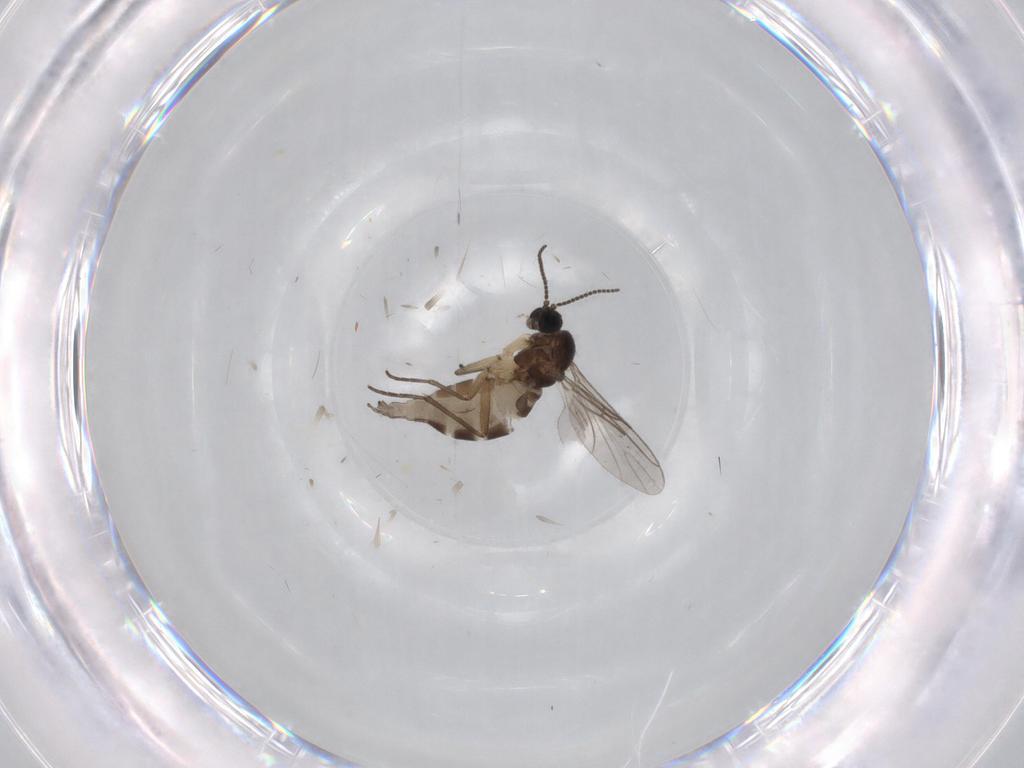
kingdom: Animalia
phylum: Arthropoda
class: Insecta
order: Diptera
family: Sciaridae
